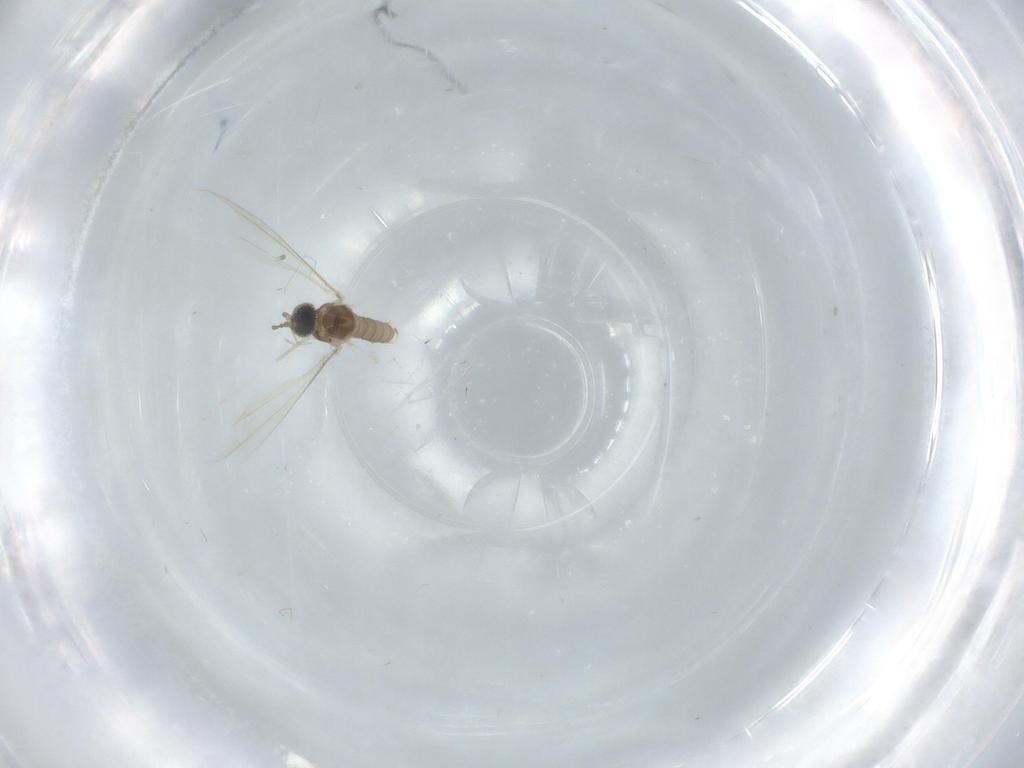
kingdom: Animalia
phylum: Arthropoda
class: Insecta
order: Diptera
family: Cecidomyiidae
